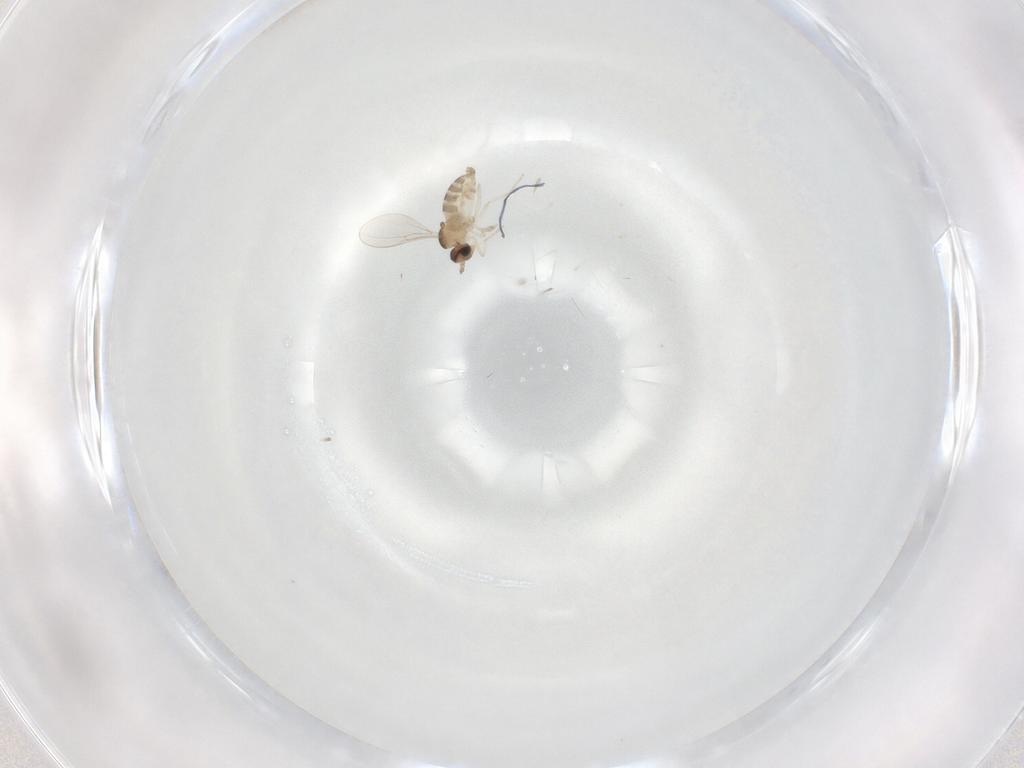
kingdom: Animalia
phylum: Arthropoda
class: Insecta
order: Diptera
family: Cecidomyiidae
